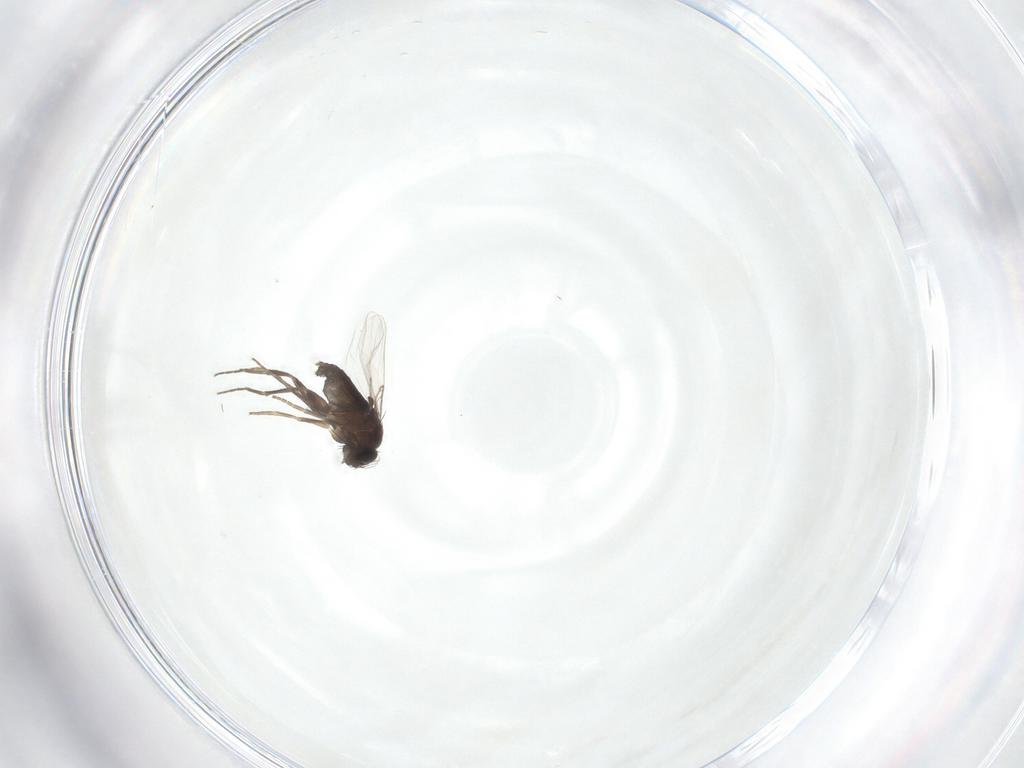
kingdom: Animalia
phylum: Arthropoda
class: Insecta
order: Diptera
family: Phoridae
